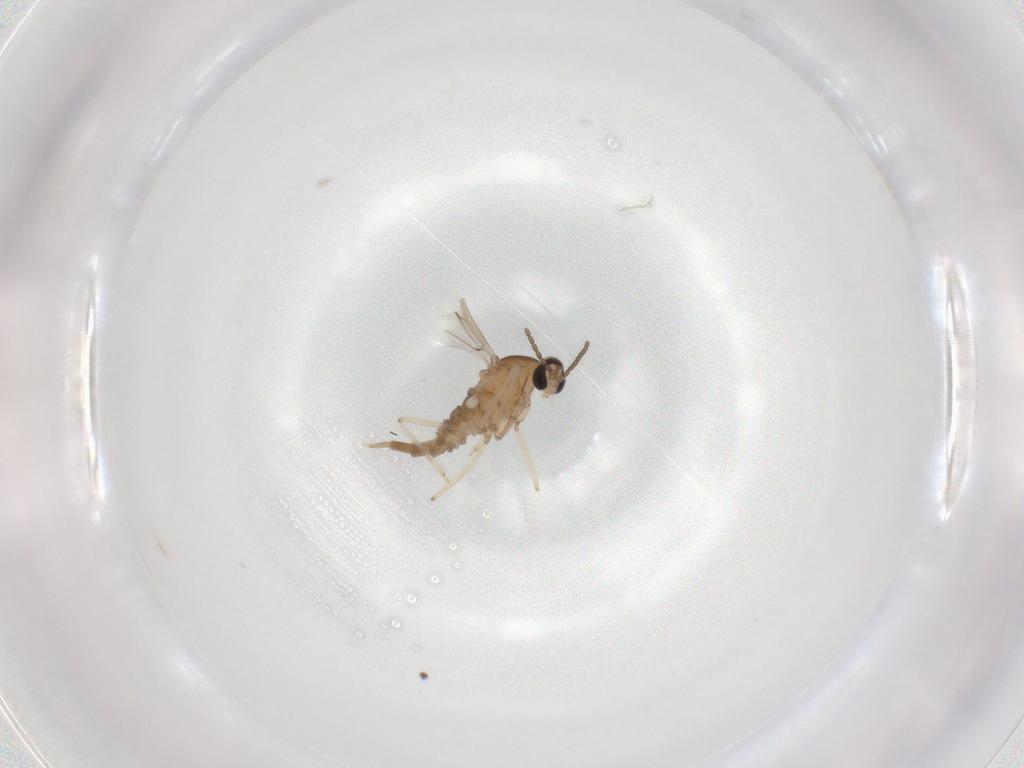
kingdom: Animalia
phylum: Arthropoda
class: Insecta
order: Diptera
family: Cecidomyiidae
